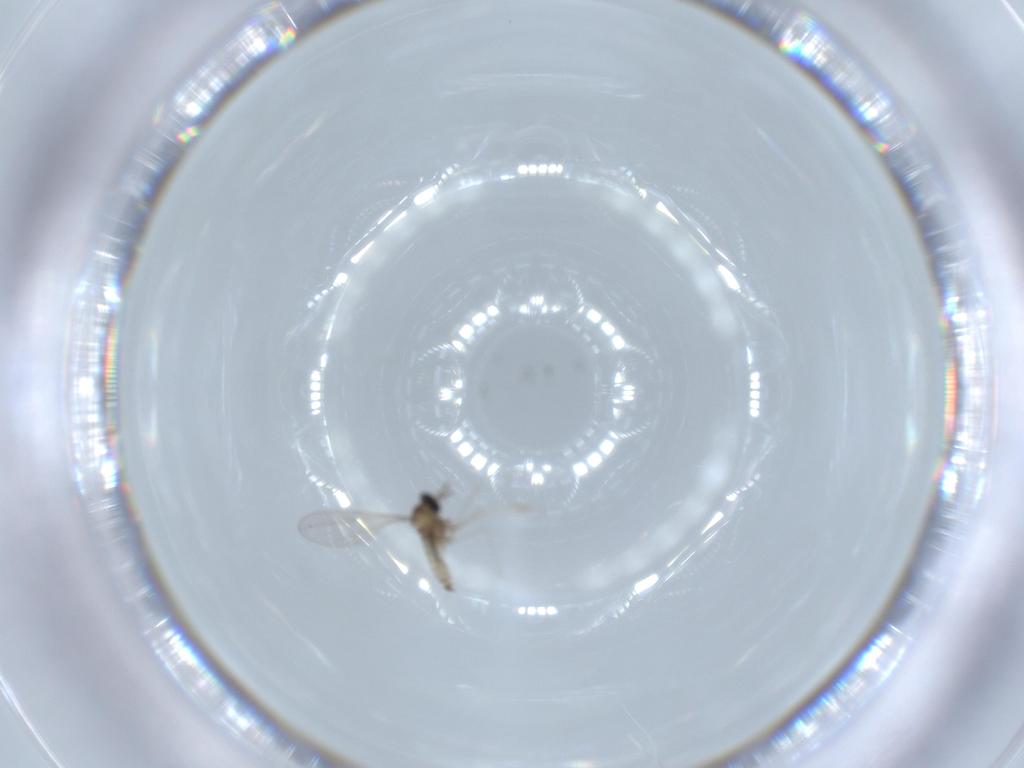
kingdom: Animalia
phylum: Arthropoda
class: Insecta
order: Diptera
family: Cecidomyiidae
